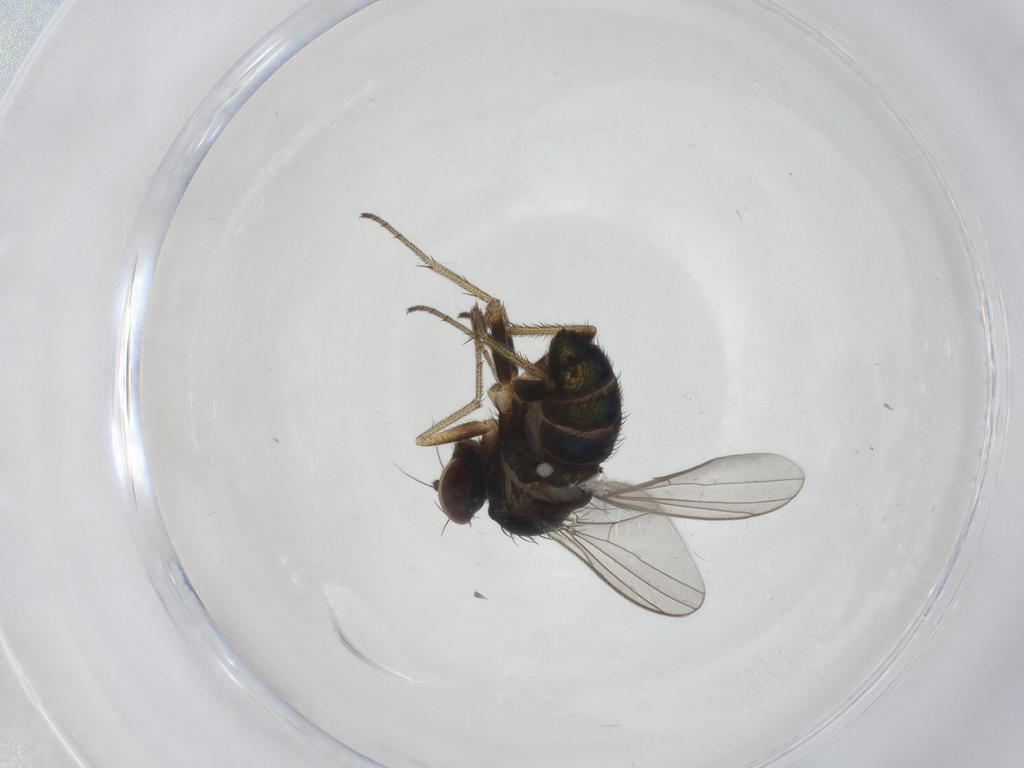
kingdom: Animalia
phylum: Arthropoda
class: Insecta
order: Diptera
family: Dolichopodidae
